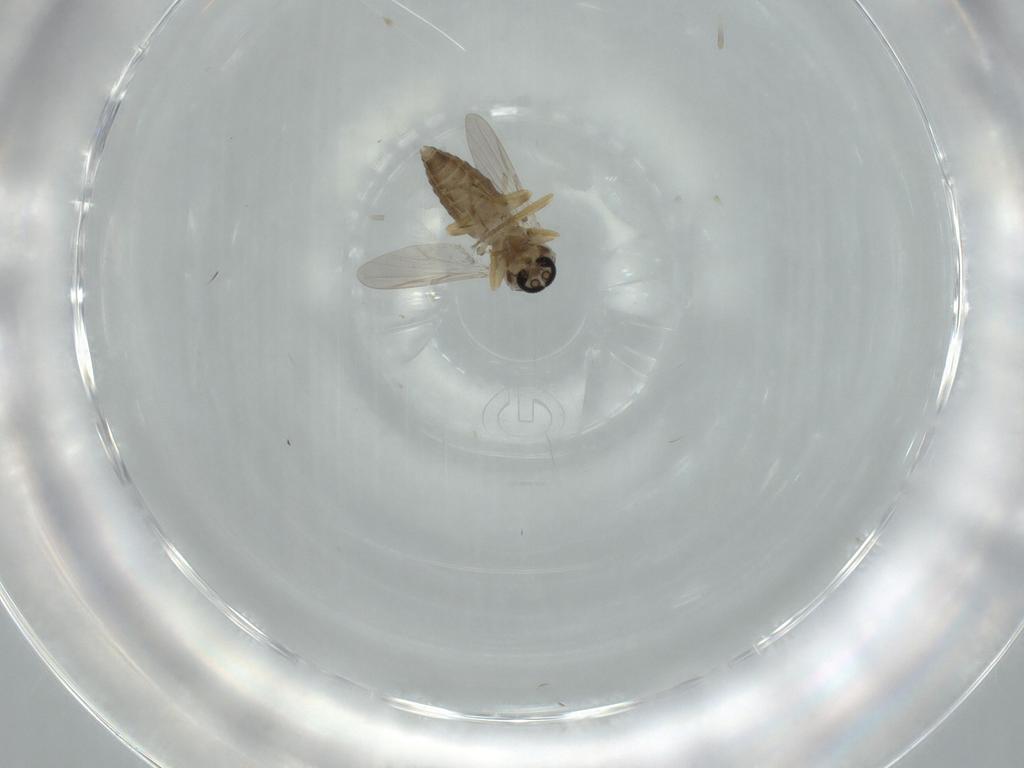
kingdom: Animalia
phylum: Arthropoda
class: Insecta
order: Diptera
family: Ceratopogonidae
